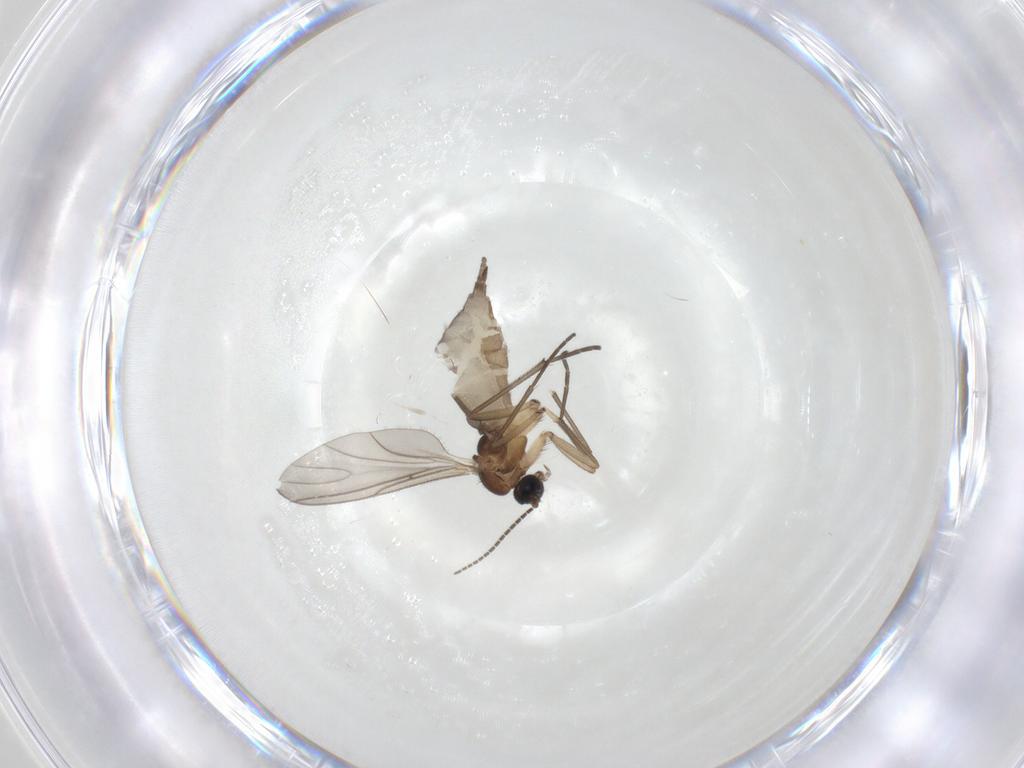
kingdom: Animalia
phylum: Arthropoda
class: Insecta
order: Diptera
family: Sciaridae
